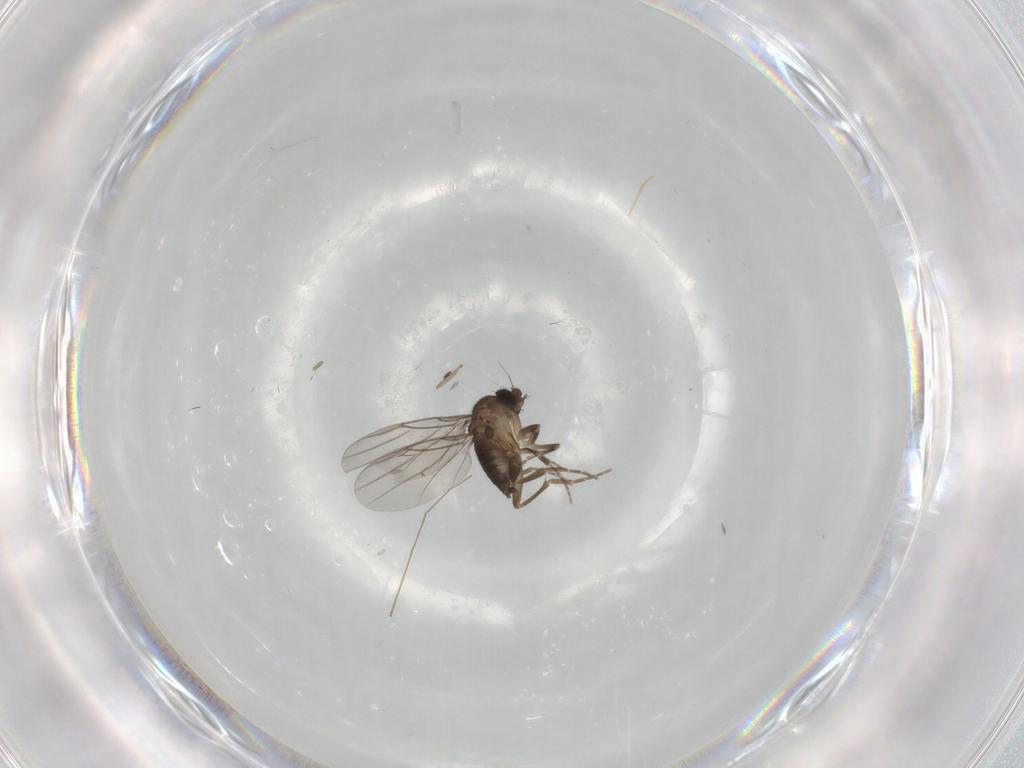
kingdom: Animalia
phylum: Arthropoda
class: Insecta
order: Diptera
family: Phoridae
